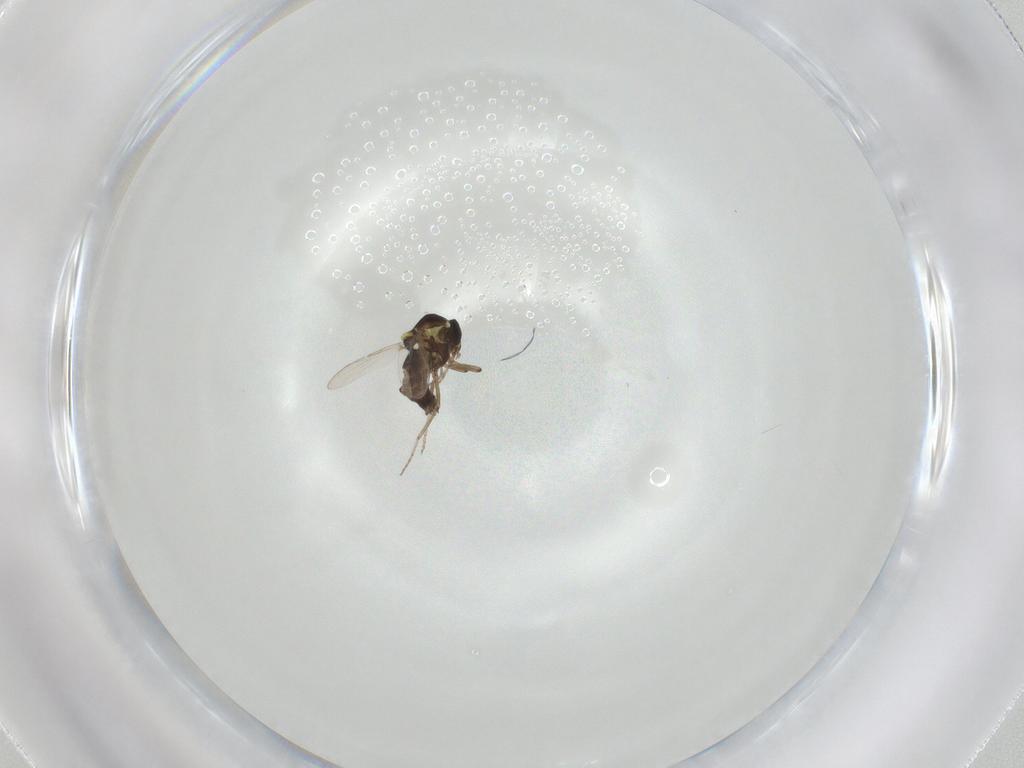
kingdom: Animalia
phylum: Arthropoda
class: Insecta
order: Diptera
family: Ceratopogonidae
